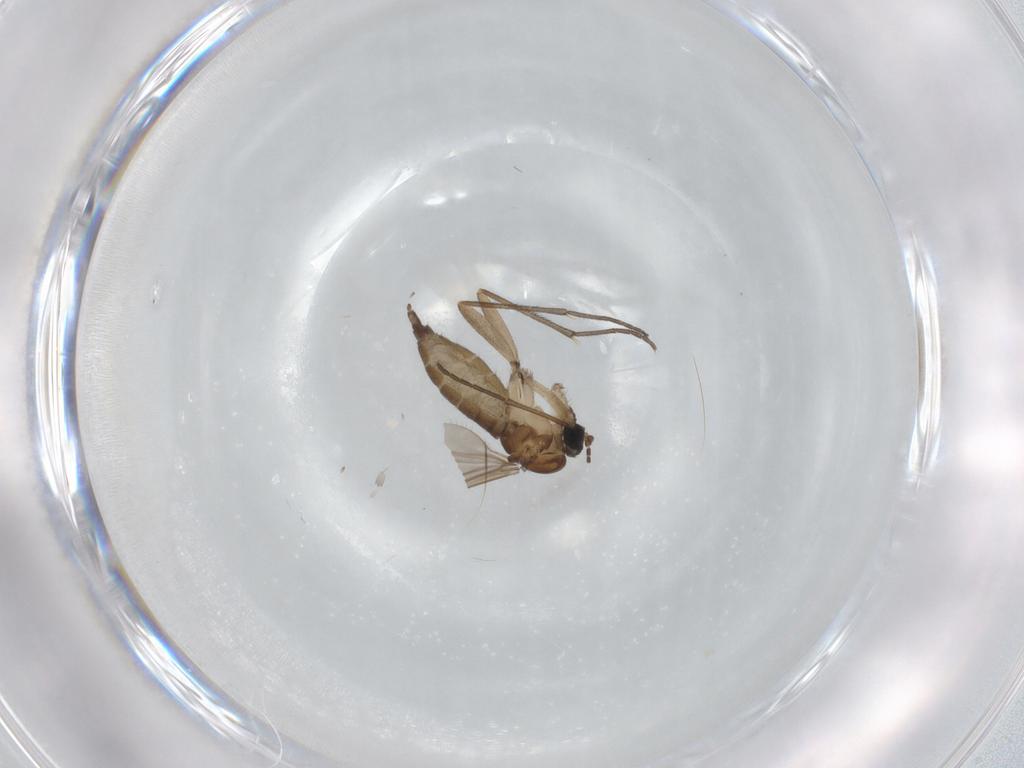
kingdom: Animalia
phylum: Arthropoda
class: Insecta
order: Diptera
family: Sciaridae
